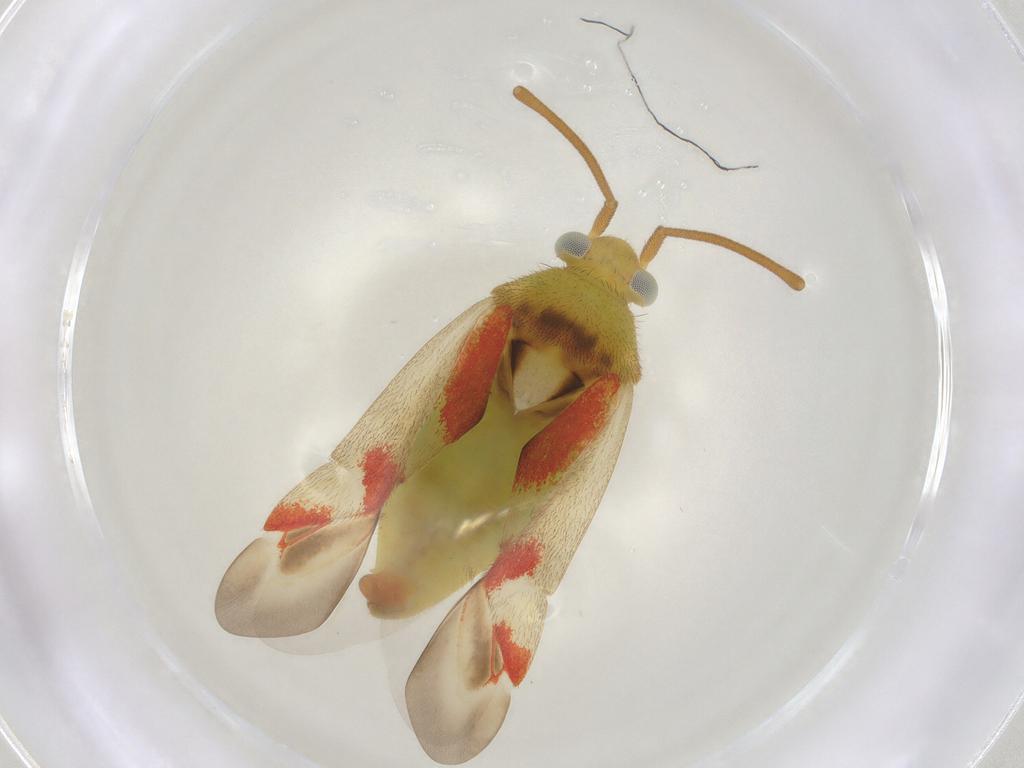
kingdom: Animalia
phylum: Arthropoda
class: Insecta
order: Hemiptera
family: Miridae
